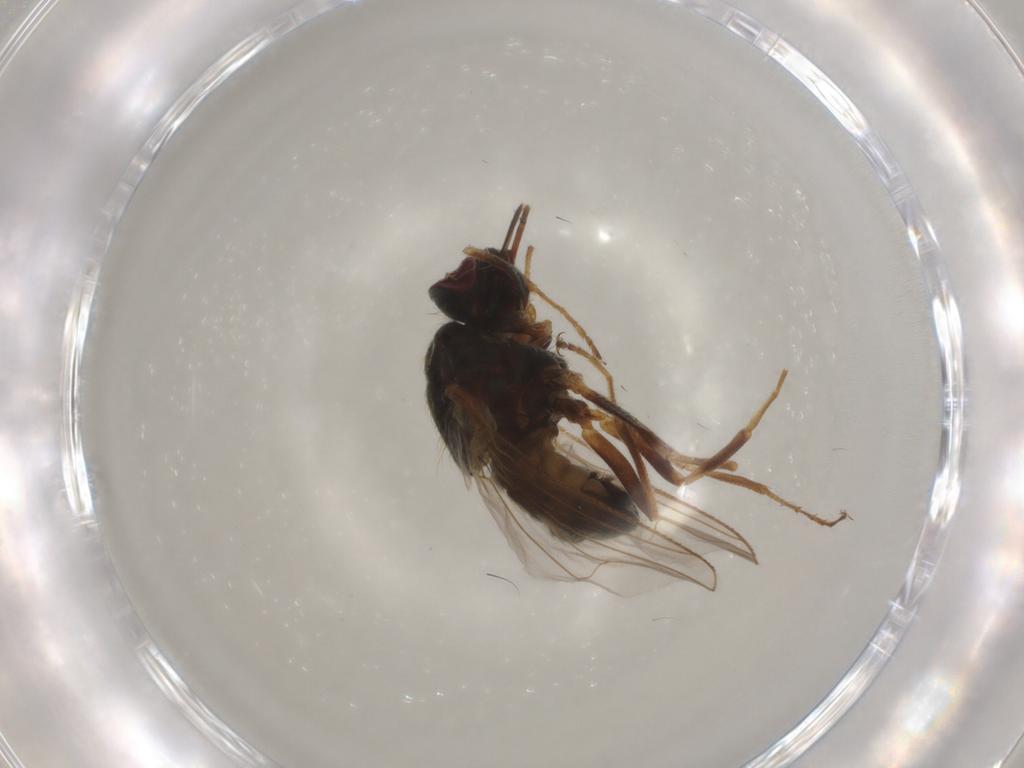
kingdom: Animalia
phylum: Arthropoda
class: Insecta
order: Diptera
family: Muscidae
